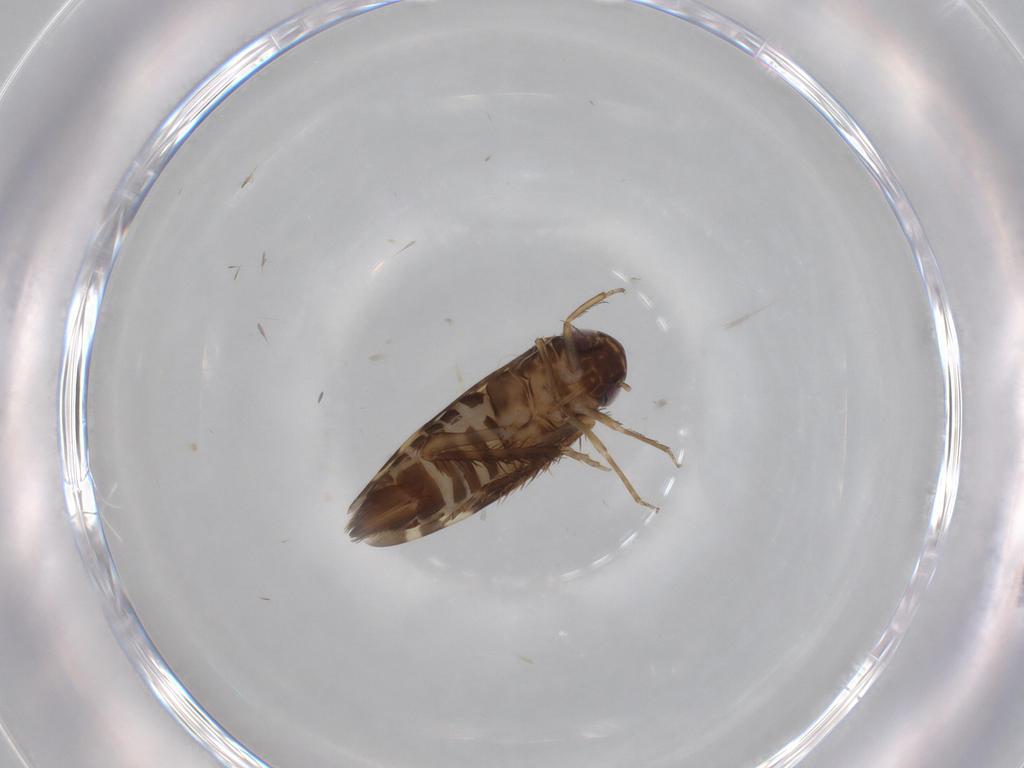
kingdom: Animalia
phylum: Arthropoda
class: Insecta
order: Hemiptera
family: Cicadellidae
